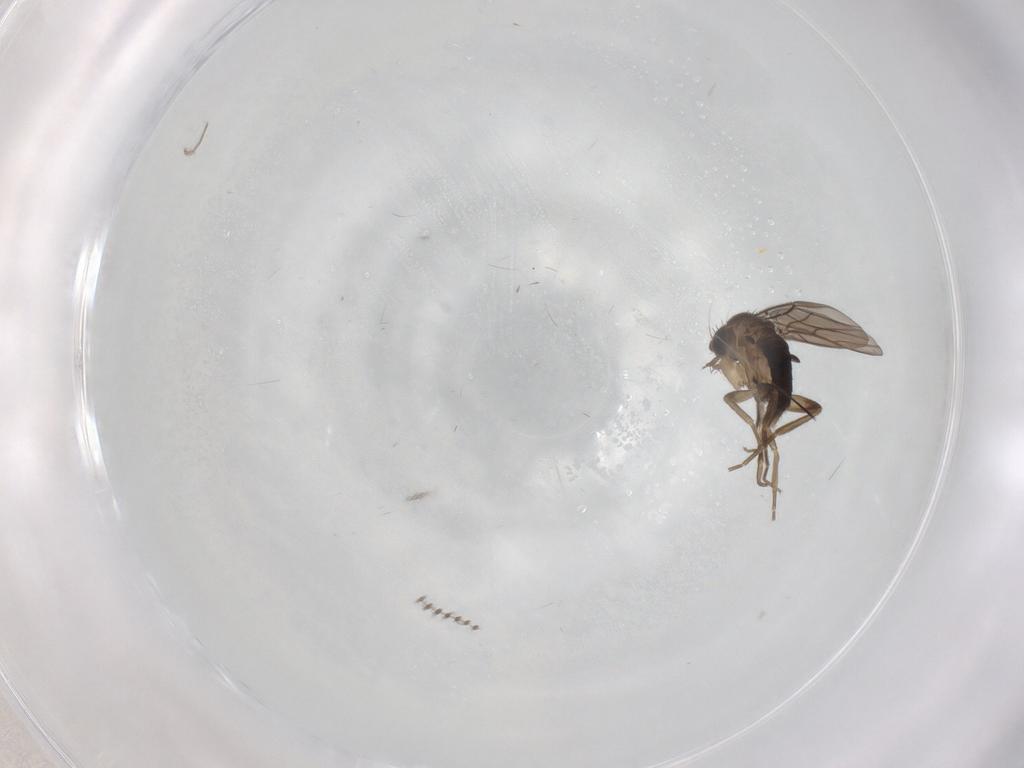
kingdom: Animalia
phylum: Arthropoda
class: Insecta
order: Diptera
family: Chironomidae
